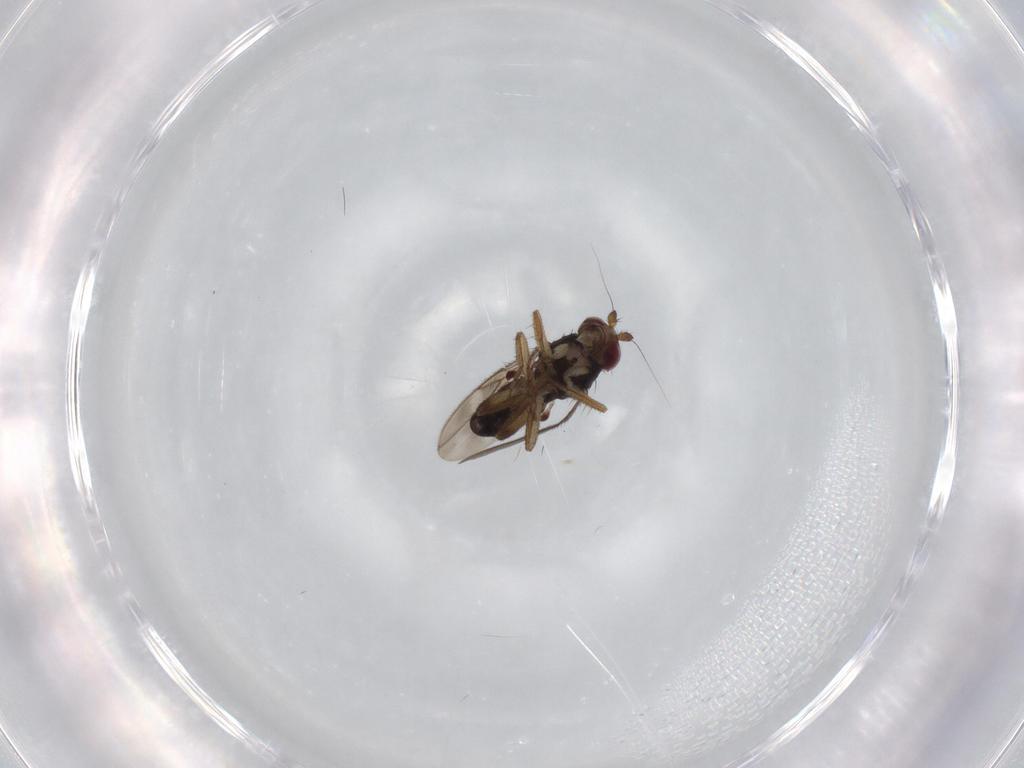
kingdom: Animalia
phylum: Arthropoda
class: Insecta
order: Diptera
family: Sphaeroceridae
